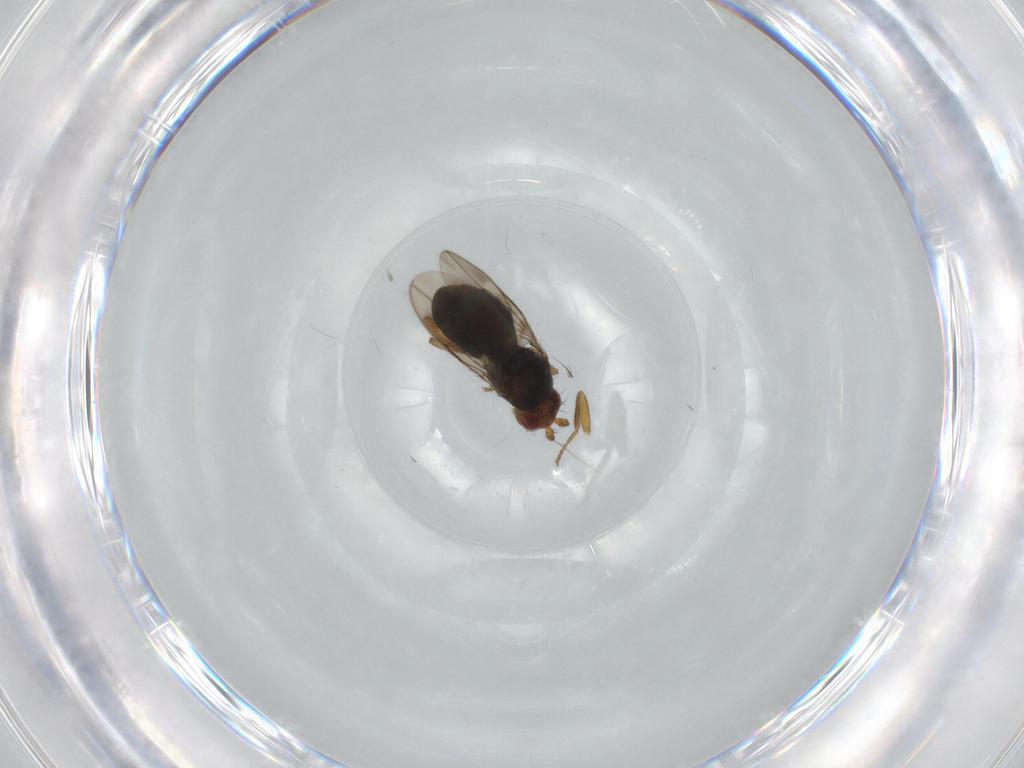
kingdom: Animalia
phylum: Arthropoda
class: Insecta
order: Diptera
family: Sphaeroceridae
